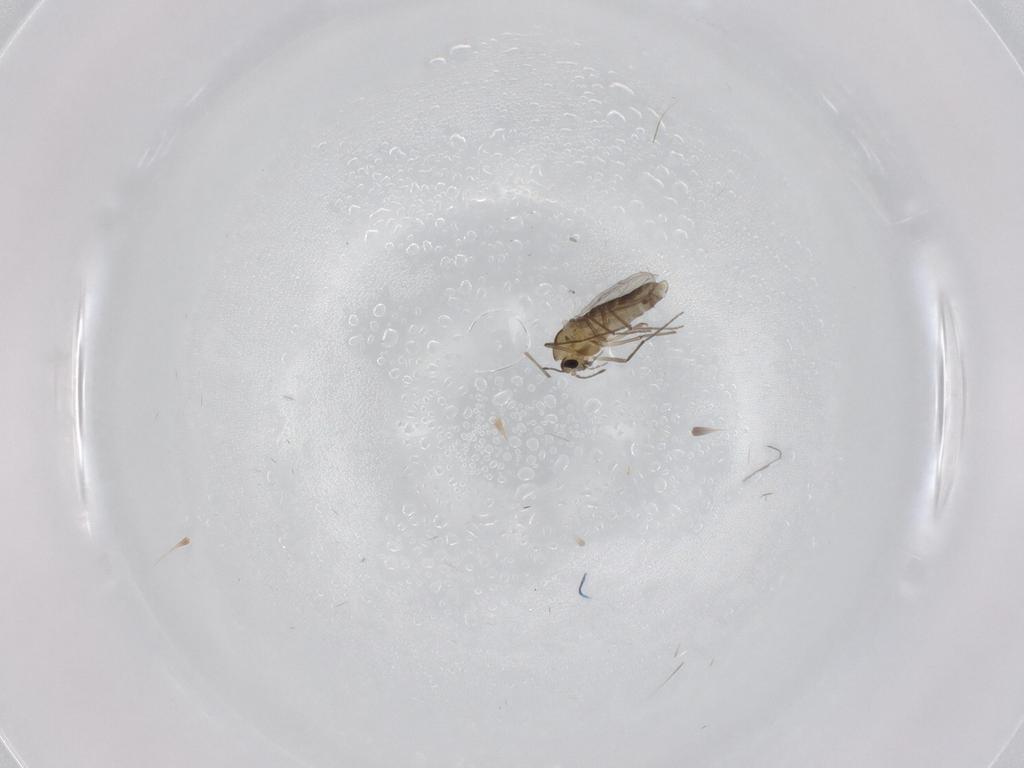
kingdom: Animalia
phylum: Arthropoda
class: Insecta
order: Diptera
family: Chironomidae
